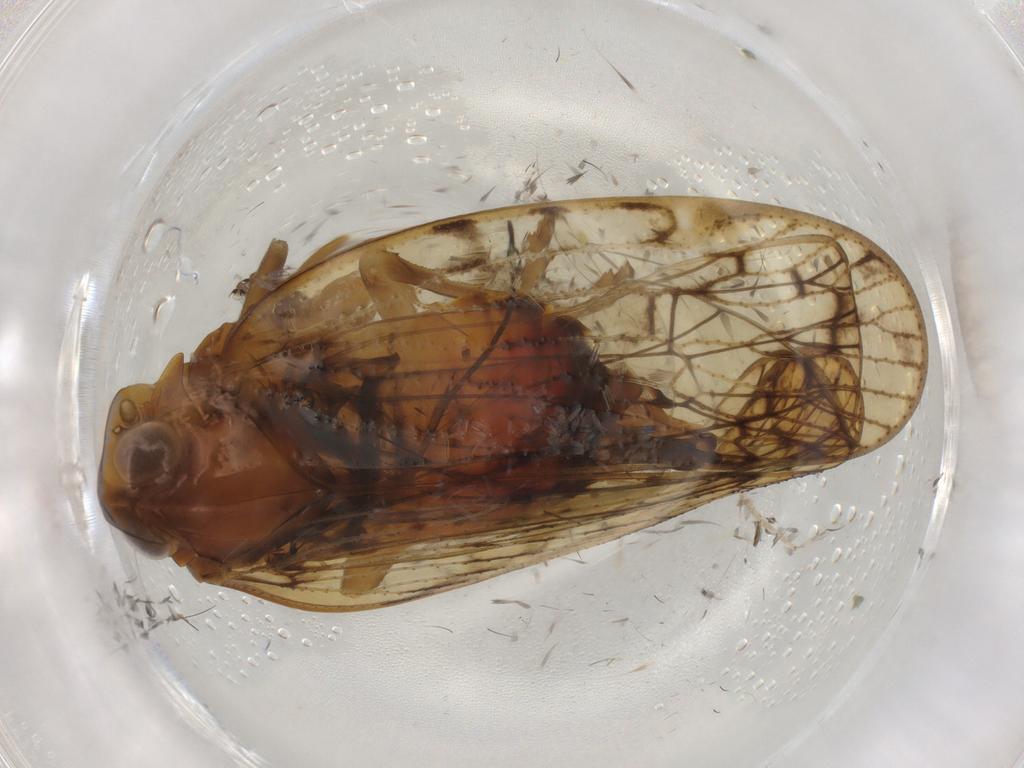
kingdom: Animalia
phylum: Arthropoda
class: Insecta
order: Hemiptera
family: Cixiidae
